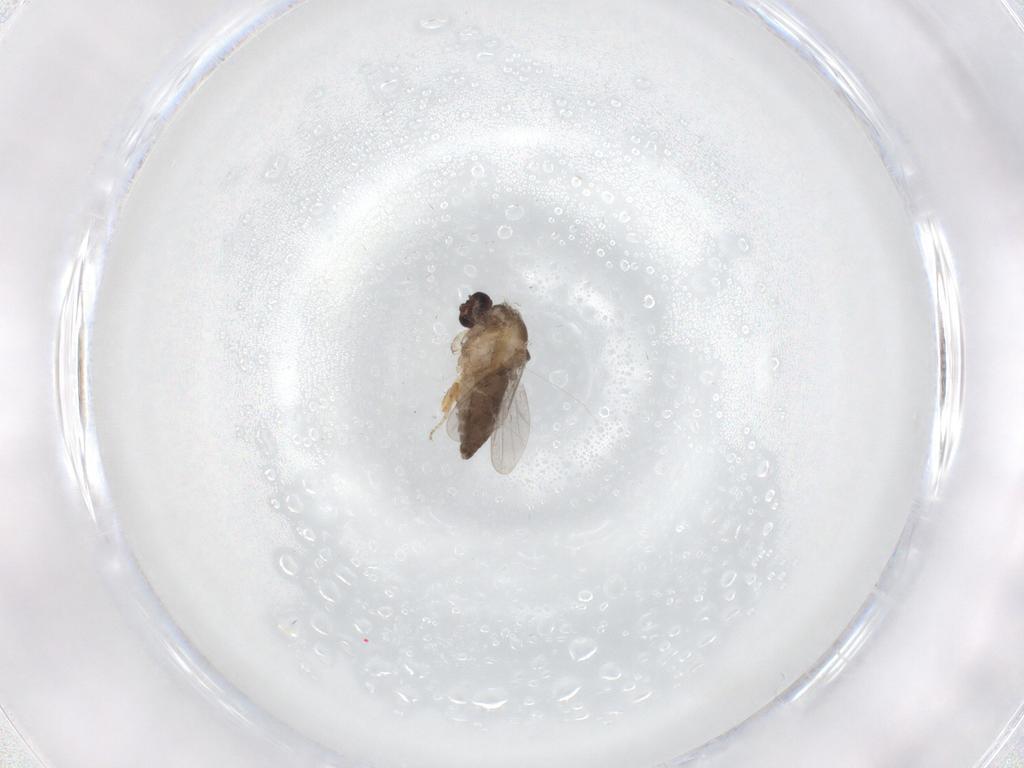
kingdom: Animalia
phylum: Arthropoda
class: Insecta
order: Diptera
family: Ceratopogonidae
